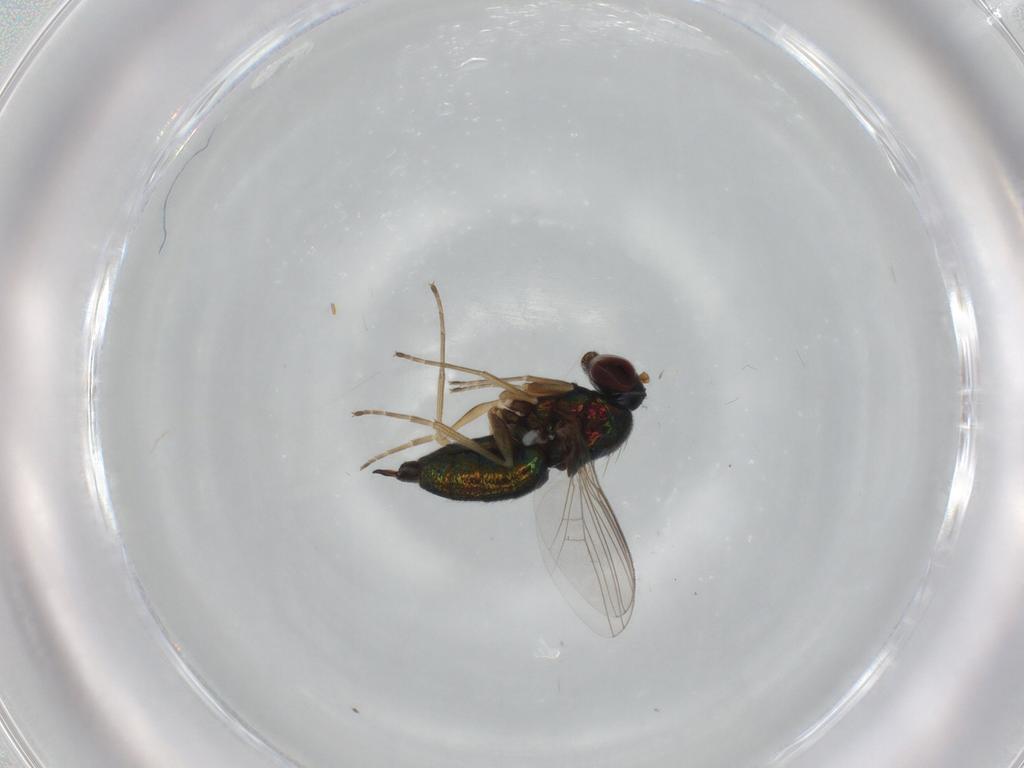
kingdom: Animalia
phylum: Arthropoda
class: Insecta
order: Diptera
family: Dolichopodidae
